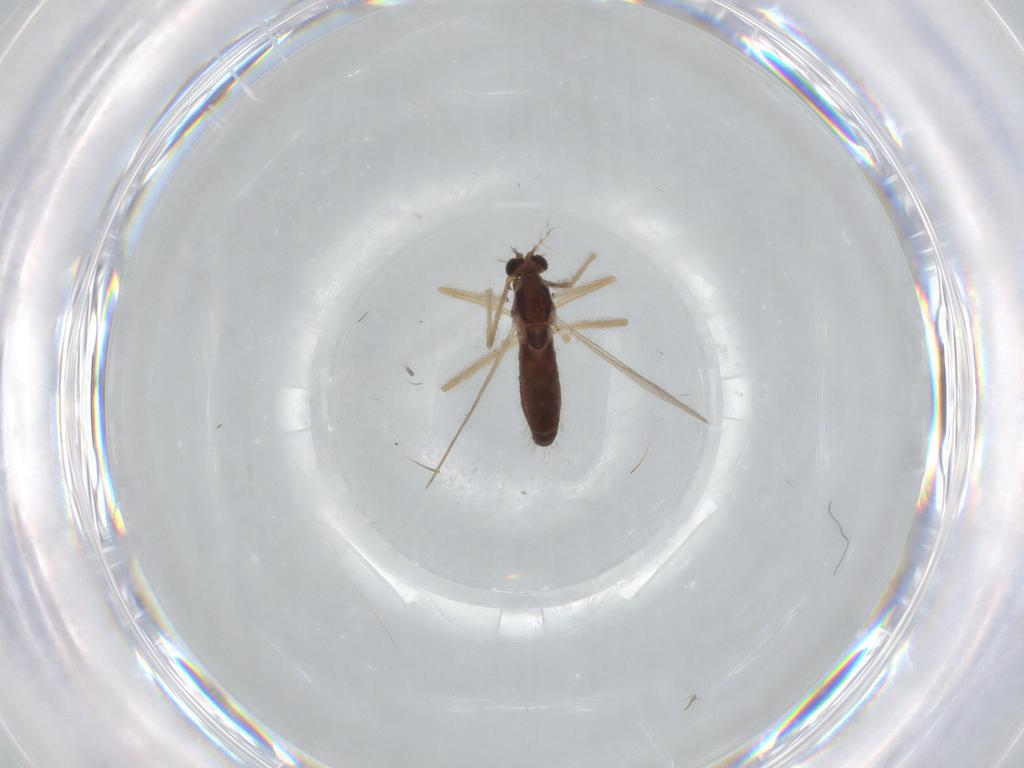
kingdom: Animalia
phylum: Arthropoda
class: Insecta
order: Diptera
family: Chironomidae
